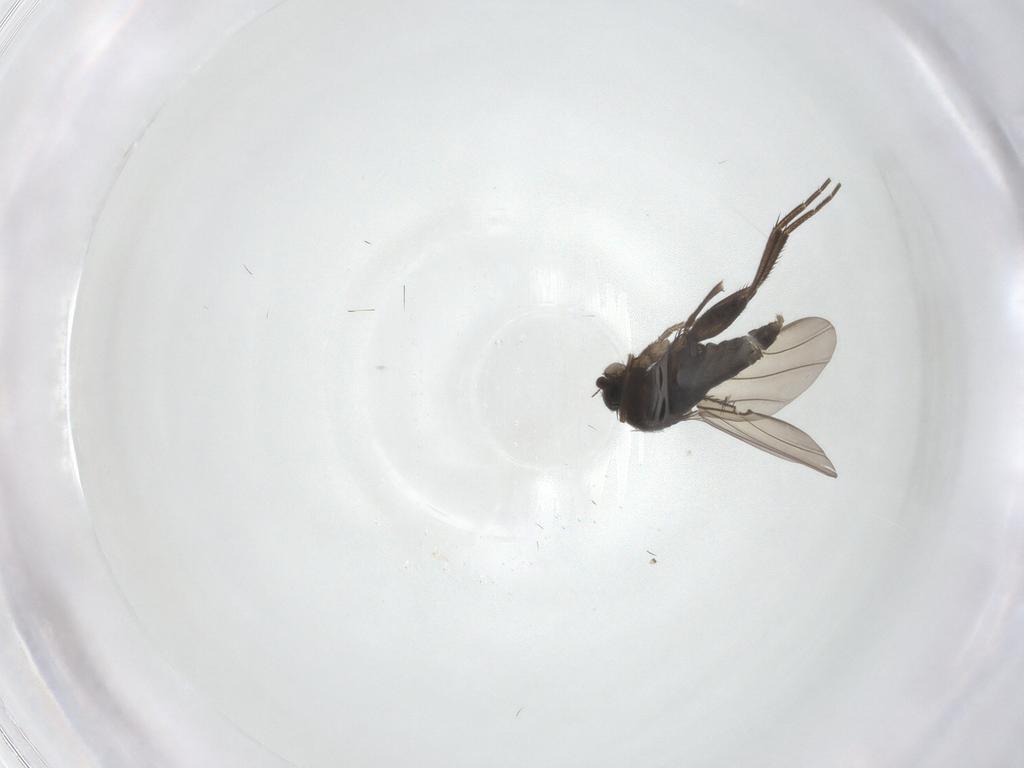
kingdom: Animalia
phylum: Arthropoda
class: Insecta
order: Diptera
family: Phoridae
